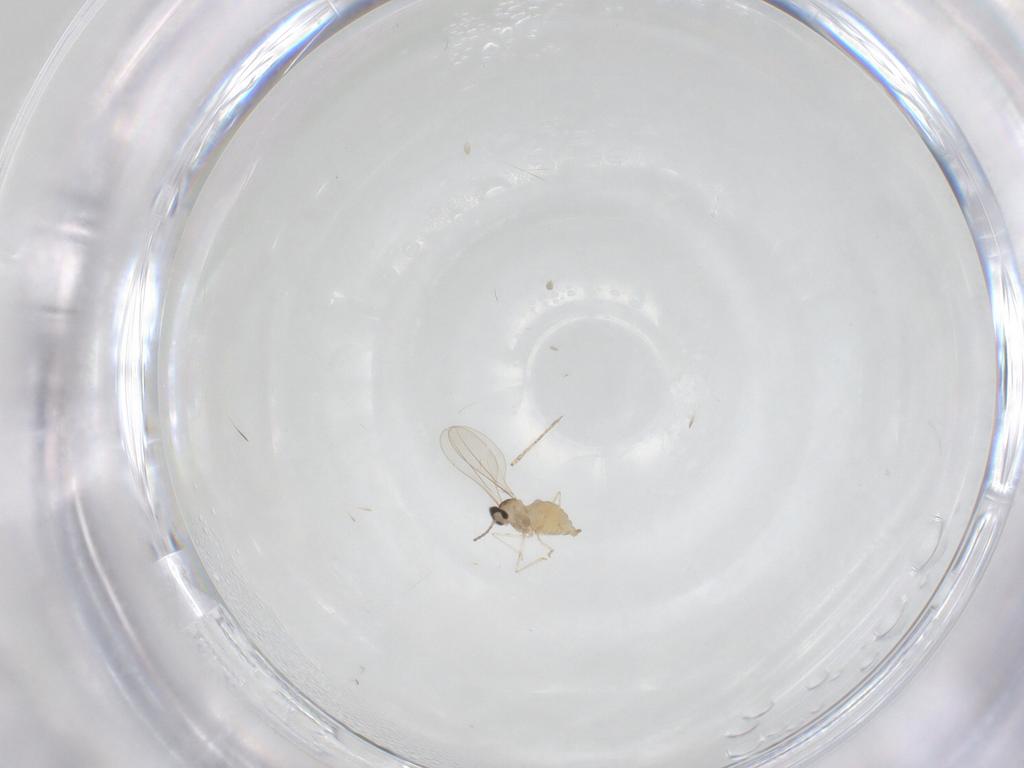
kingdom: Animalia
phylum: Arthropoda
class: Insecta
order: Diptera
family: Cecidomyiidae
